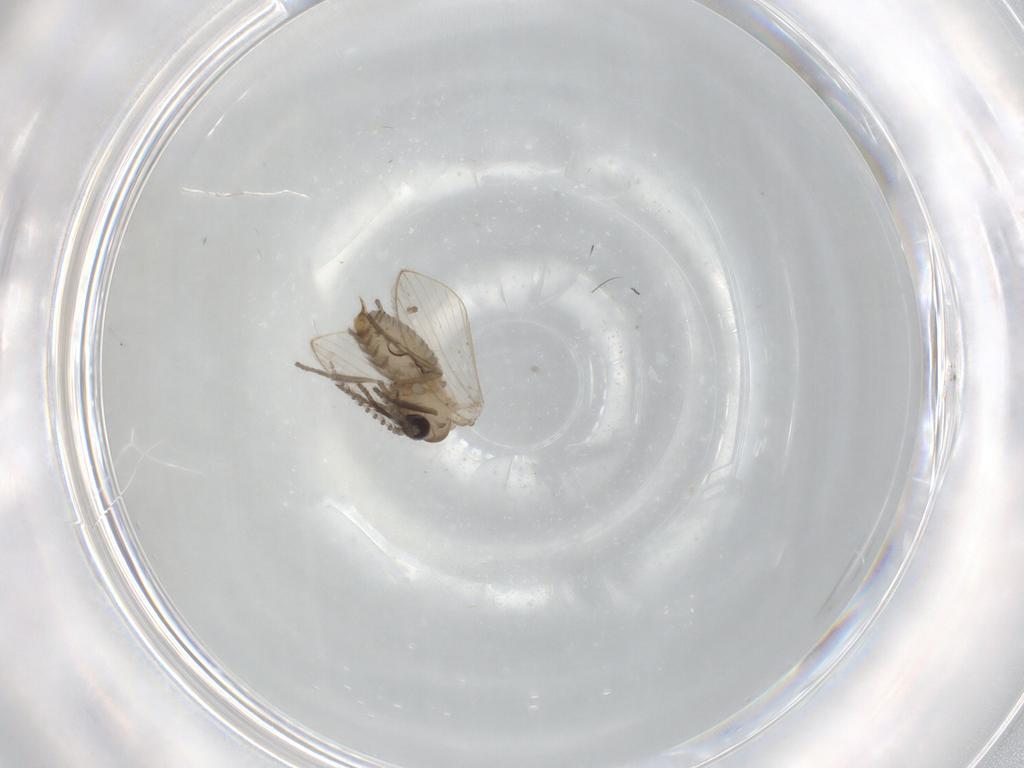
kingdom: Animalia
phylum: Arthropoda
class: Insecta
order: Diptera
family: Psychodidae
